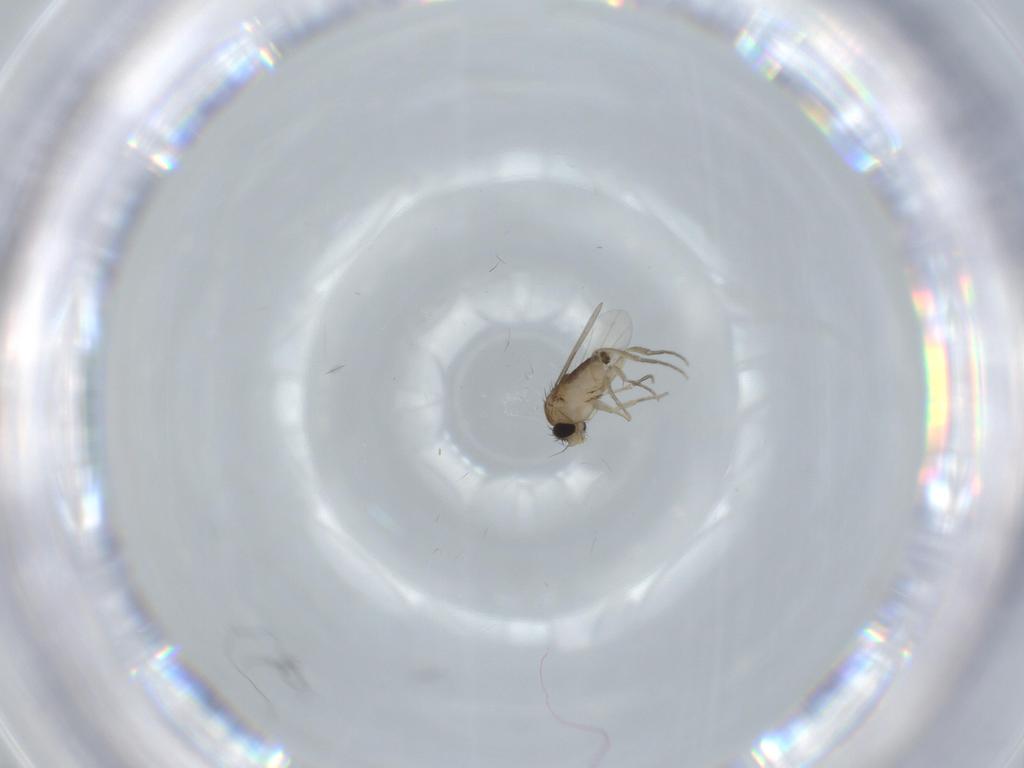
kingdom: Animalia
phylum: Arthropoda
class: Insecta
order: Diptera
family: Phoridae
